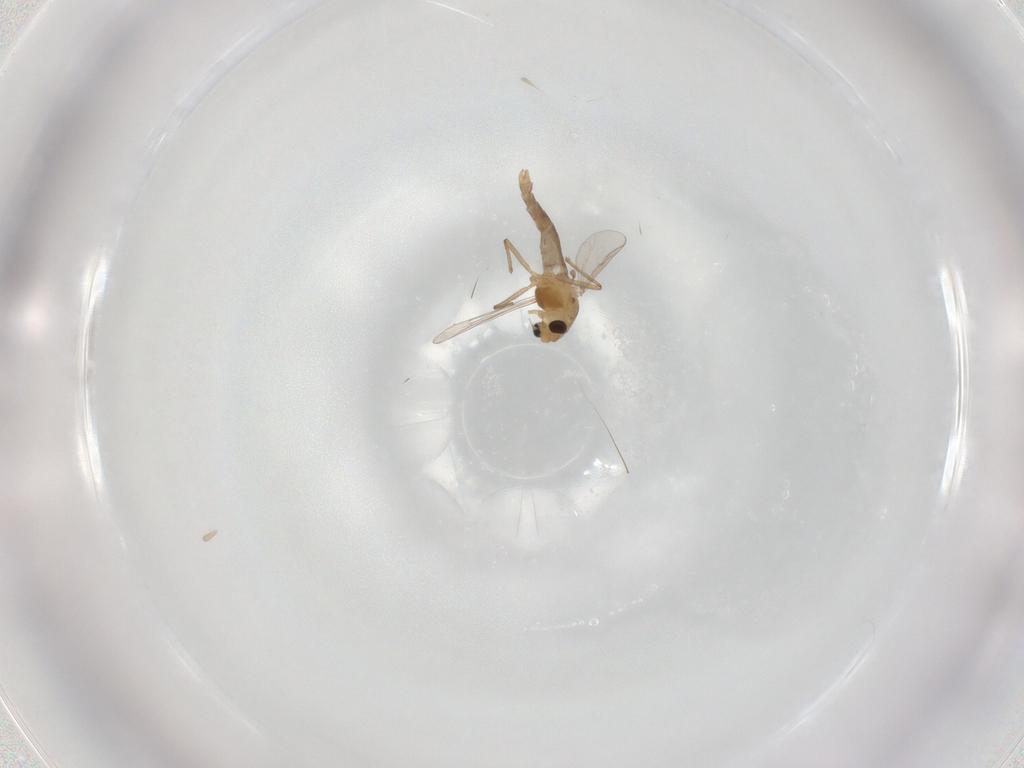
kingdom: Animalia
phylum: Arthropoda
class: Insecta
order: Diptera
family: Chironomidae
